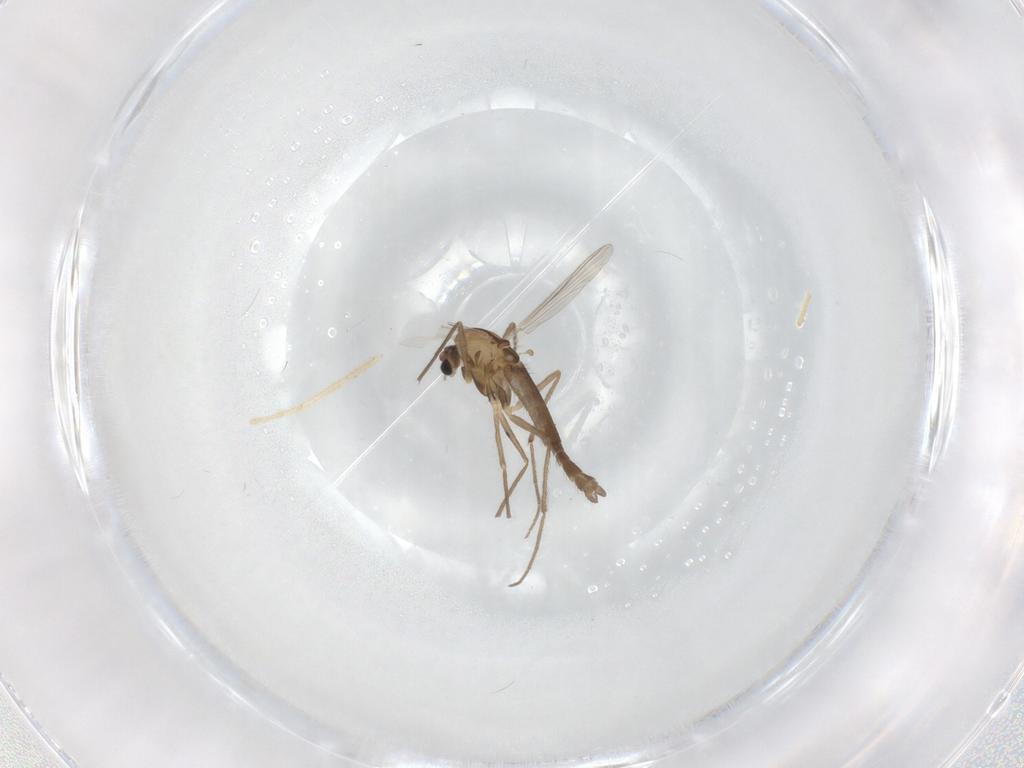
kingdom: Animalia
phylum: Arthropoda
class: Insecta
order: Diptera
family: Chironomidae
